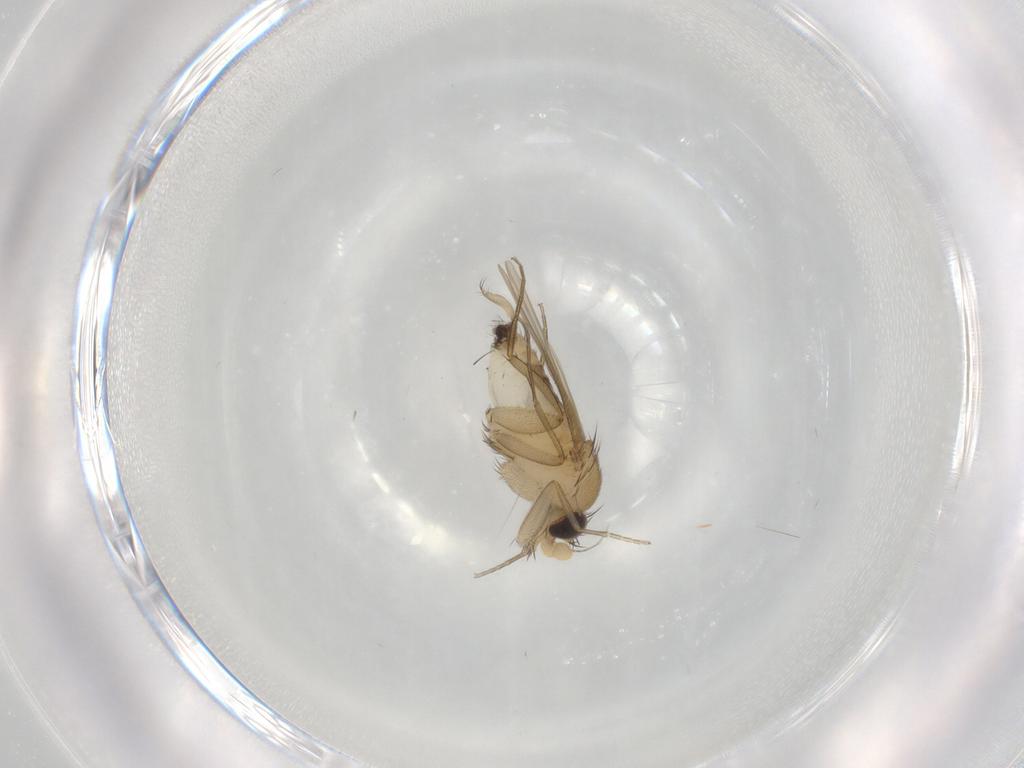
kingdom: Animalia
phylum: Arthropoda
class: Insecta
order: Diptera
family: Phoridae
